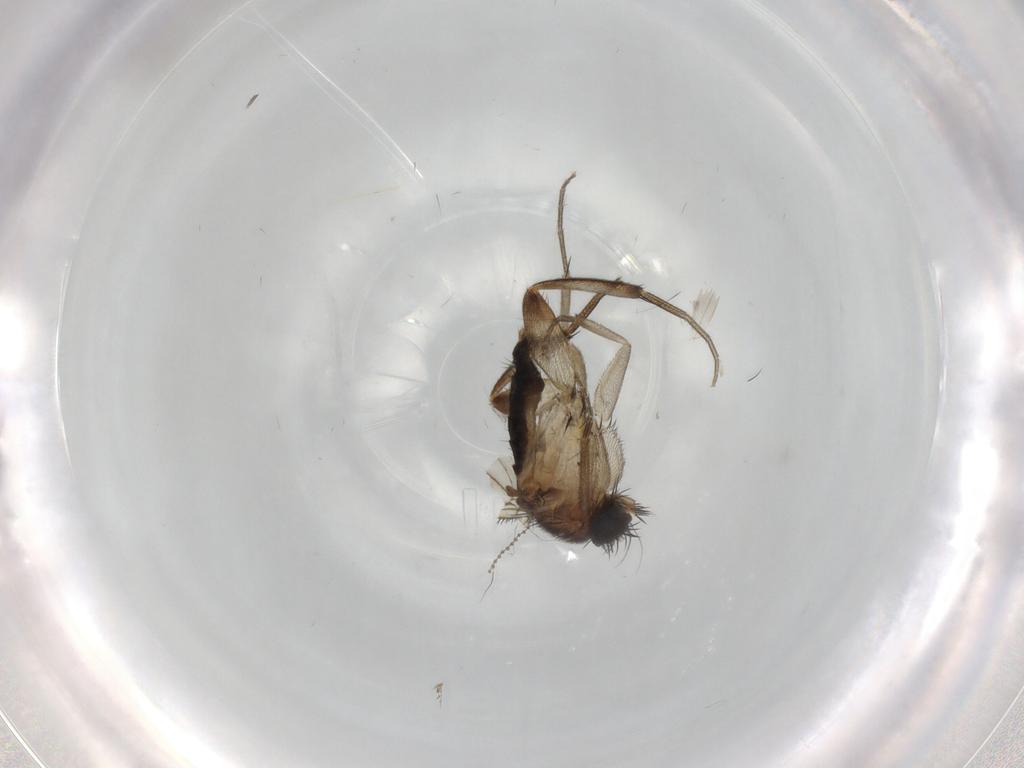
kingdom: Animalia
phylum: Arthropoda
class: Insecta
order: Diptera
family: Phoridae
